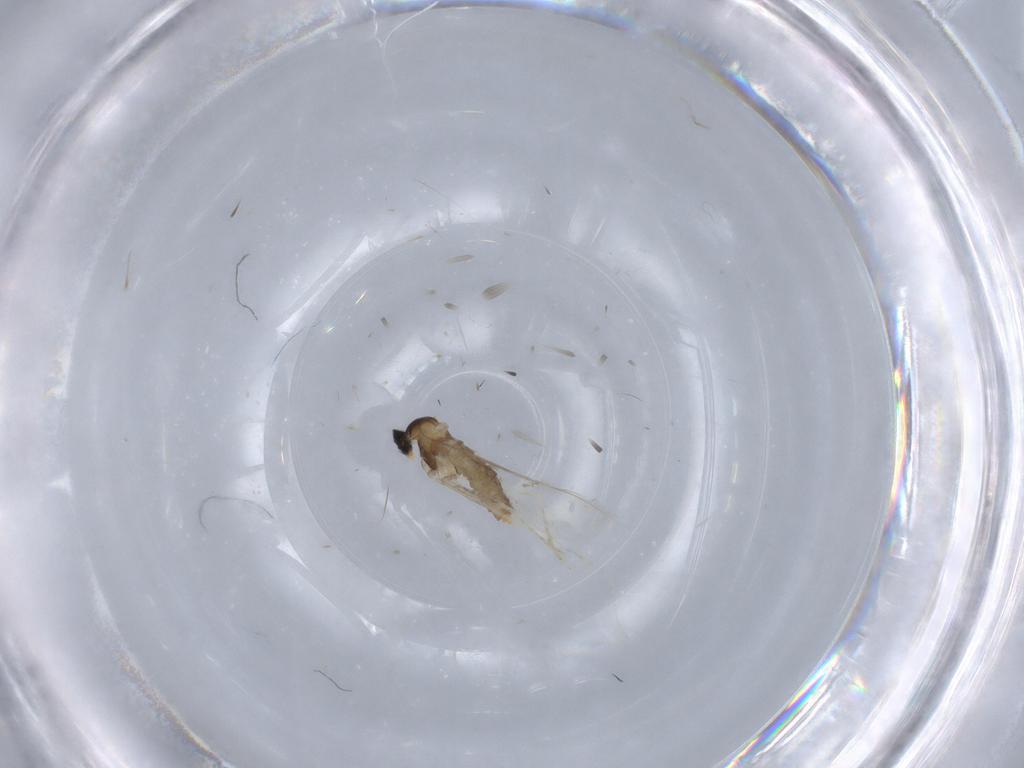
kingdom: Animalia
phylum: Arthropoda
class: Insecta
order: Diptera
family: Cecidomyiidae
